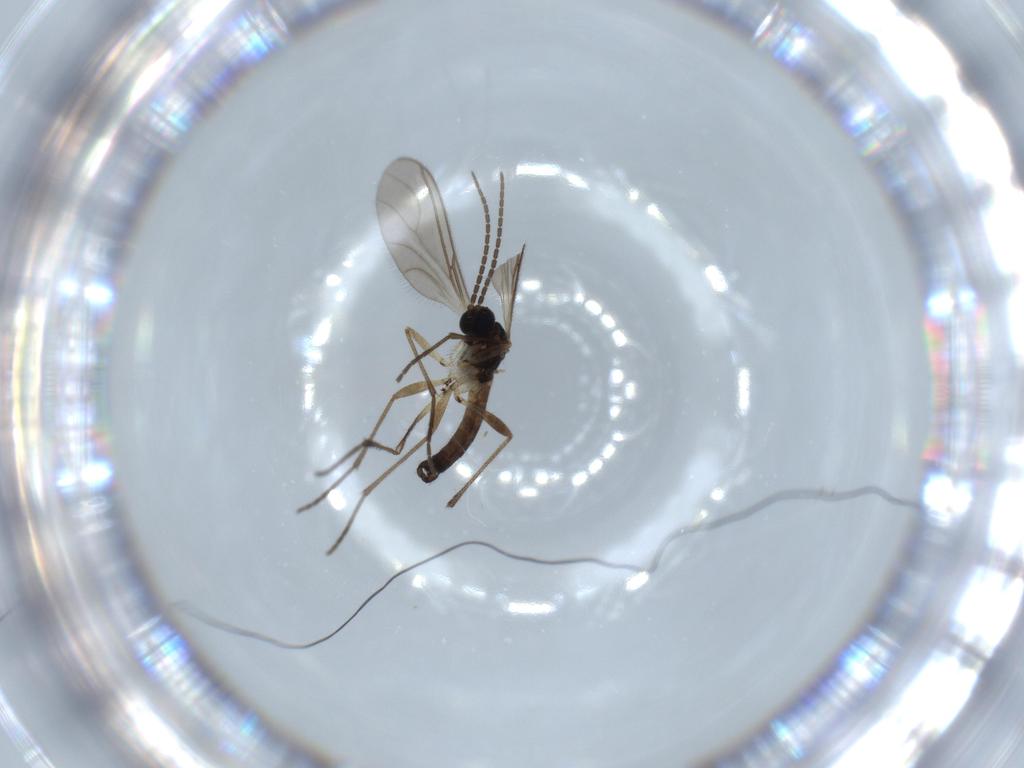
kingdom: Animalia
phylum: Arthropoda
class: Insecta
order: Diptera
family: Sciaridae
